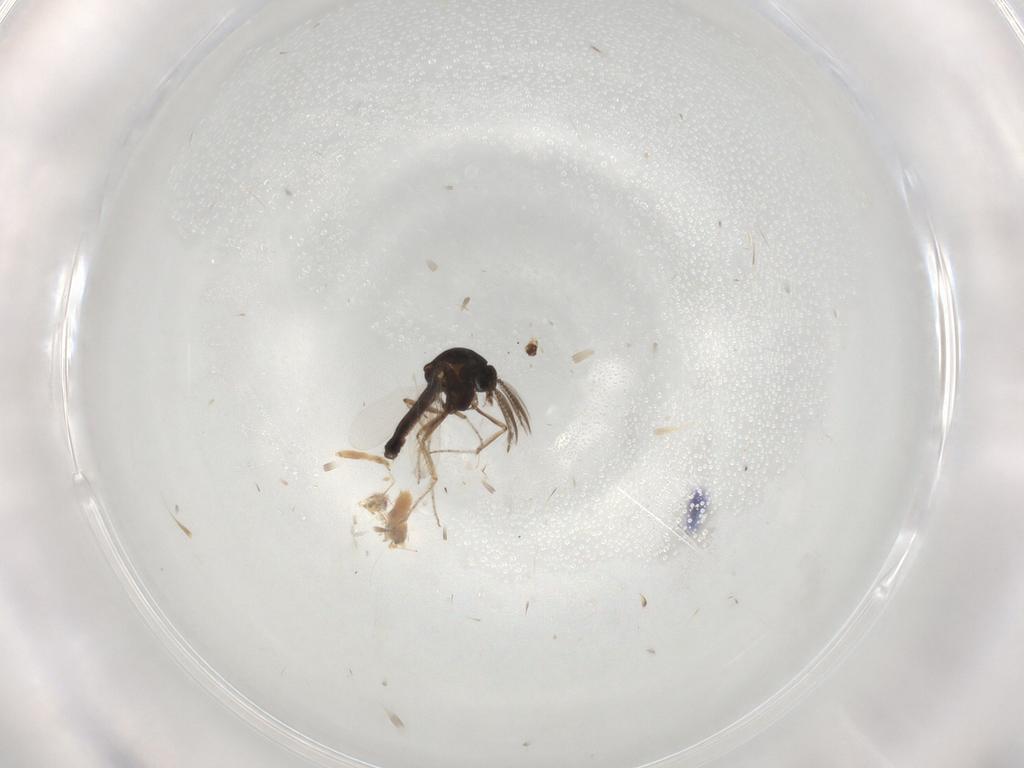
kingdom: Animalia
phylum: Arthropoda
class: Insecta
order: Diptera
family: Ceratopogonidae
